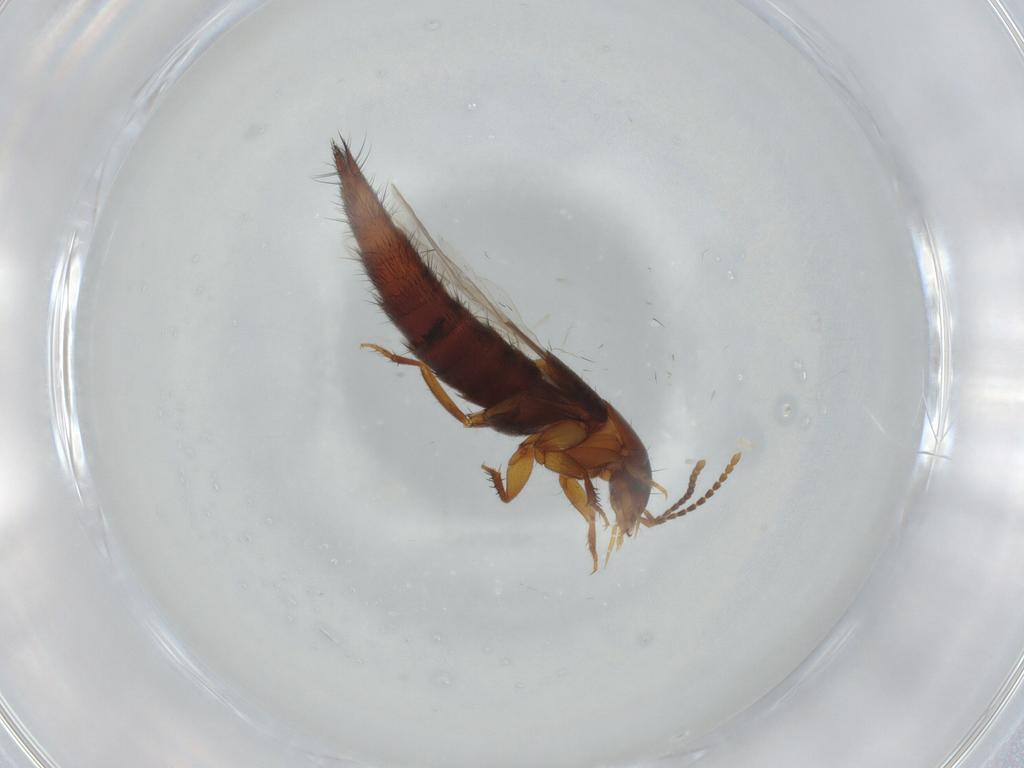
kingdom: Animalia
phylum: Arthropoda
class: Insecta
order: Coleoptera
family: Staphylinidae
